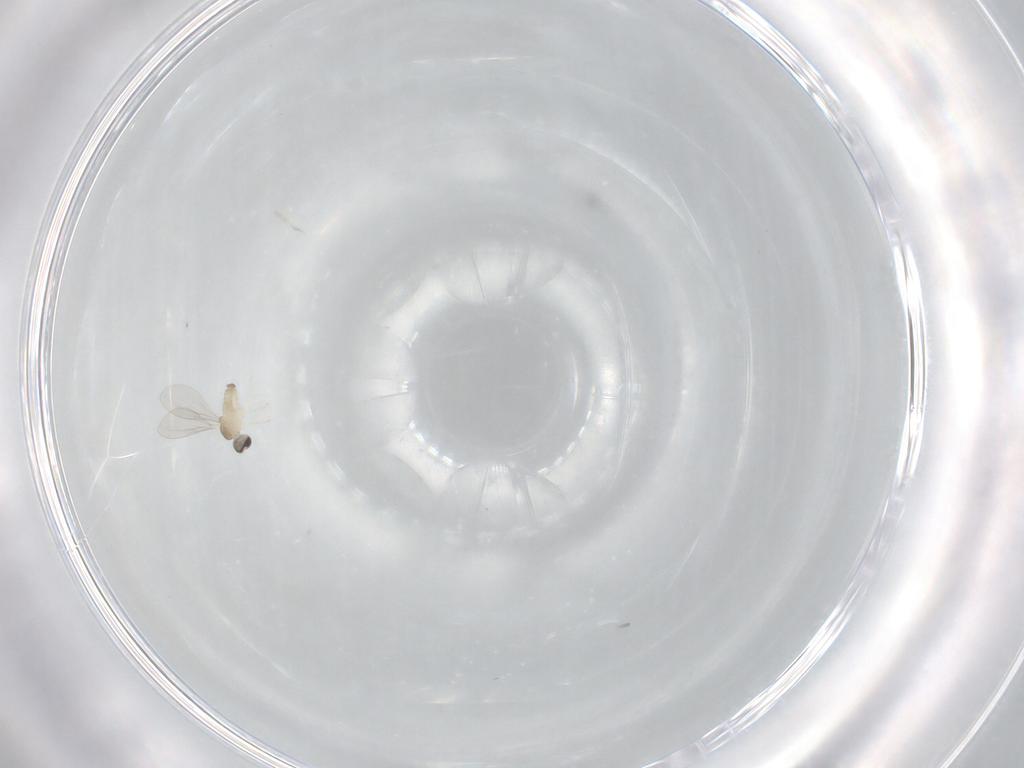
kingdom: Animalia
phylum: Arthropoda
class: Insecta
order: Diptera
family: Cecidomyiidae
